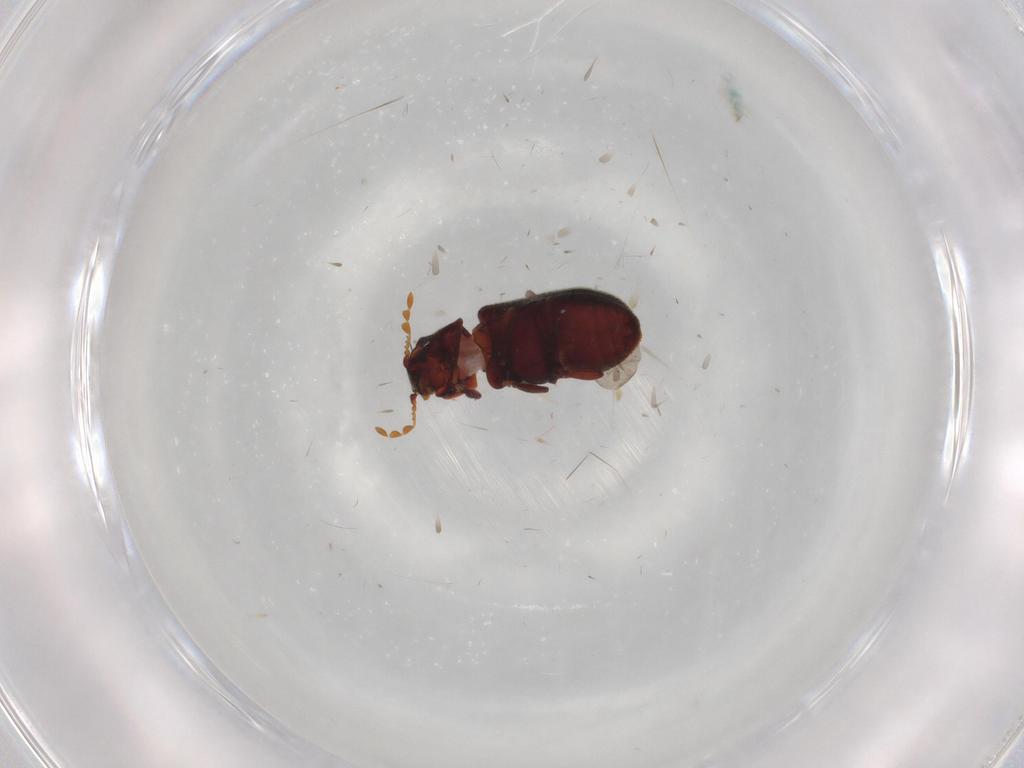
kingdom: Animalia
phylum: Arthropoda
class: Insecta
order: Coleoptera
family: Ptinidae
